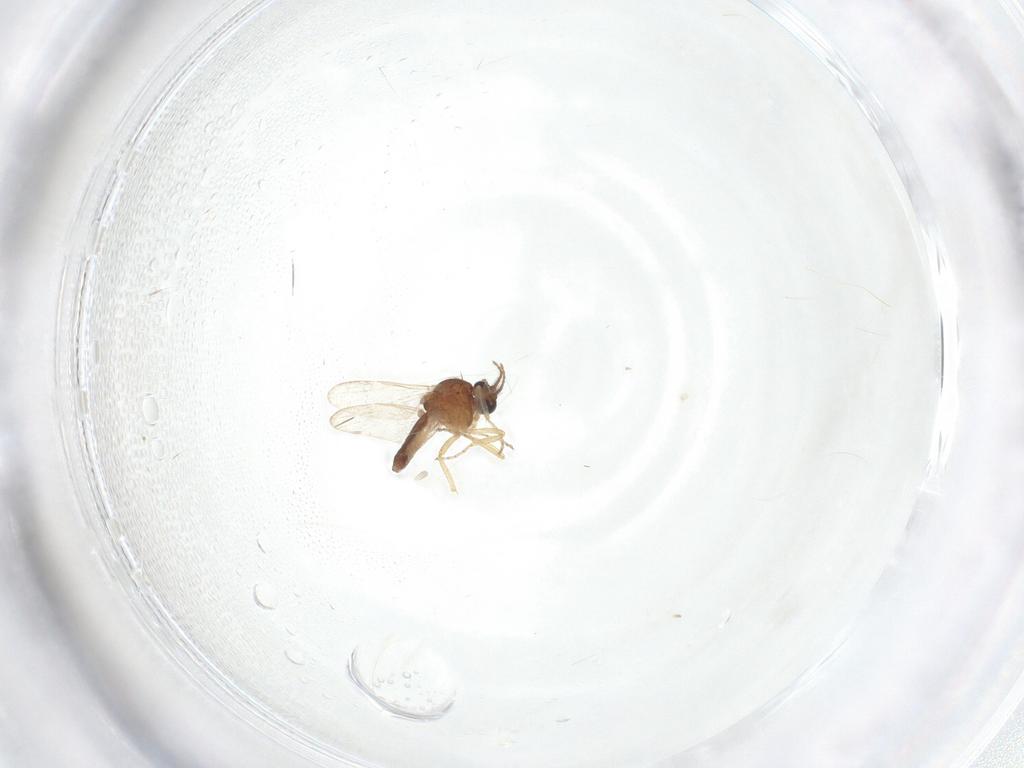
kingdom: Animalia
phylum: Arthropoda
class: Insecta
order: Diptera
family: Ceratopogonidae
